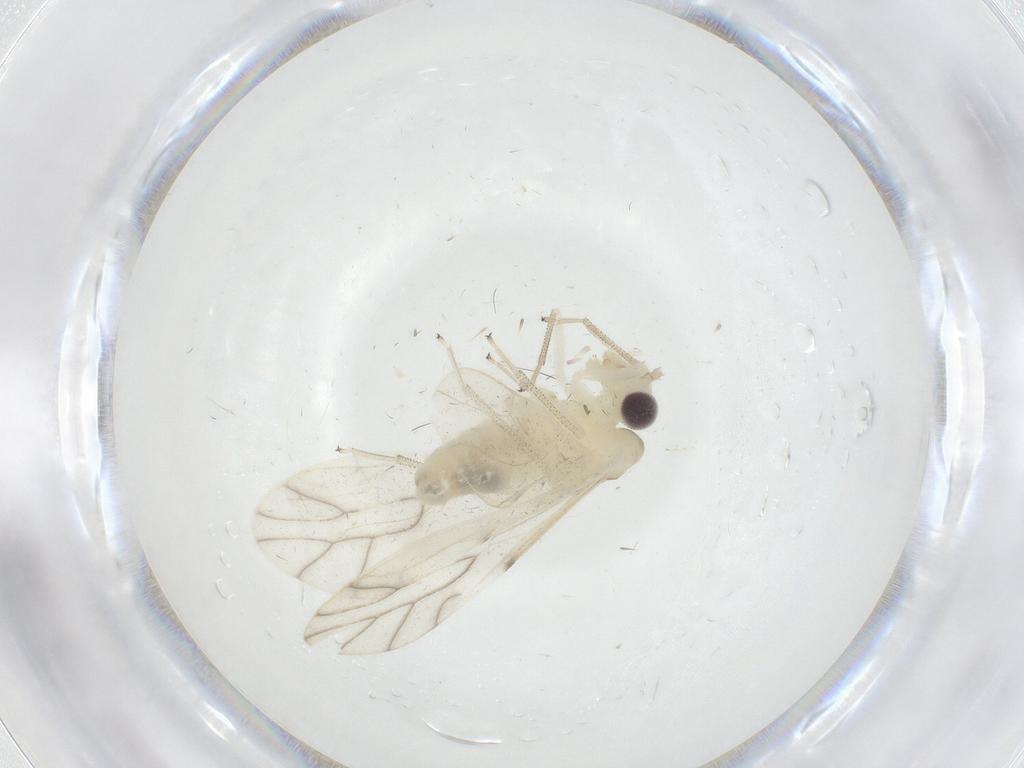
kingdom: Animalia
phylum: Arthropoda
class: Insecta
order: Psocodea
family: Caeciliusidae
